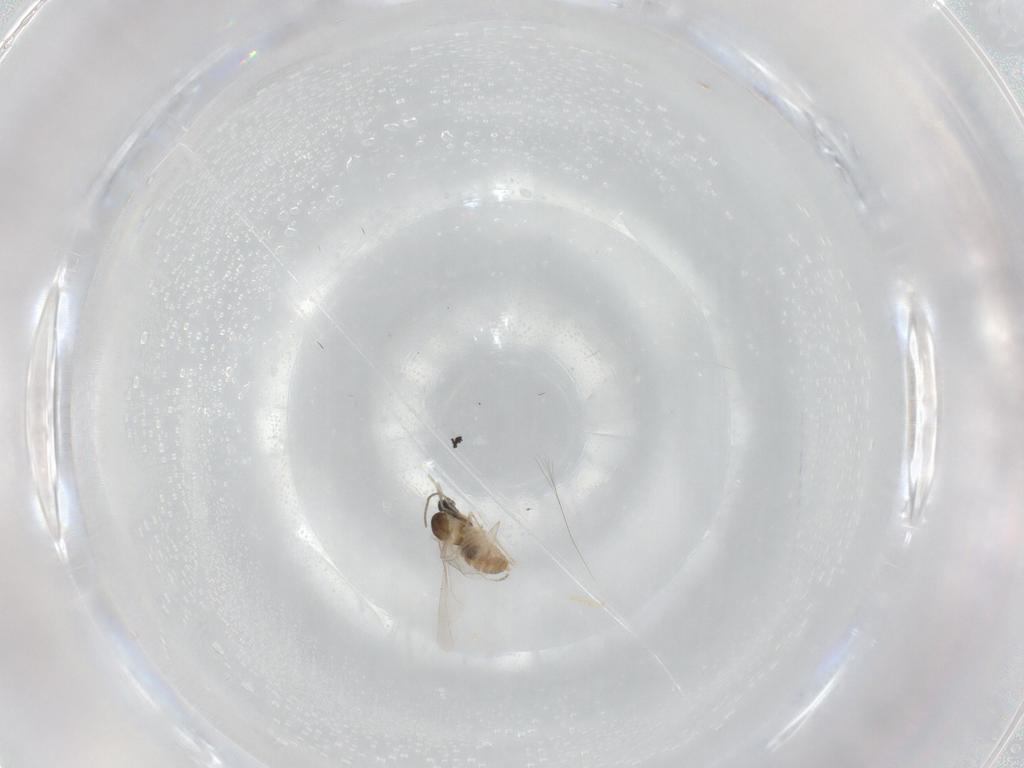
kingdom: Animalia
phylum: Arthropoda
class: Insecta
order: Diptera
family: Cecidomyiidae
